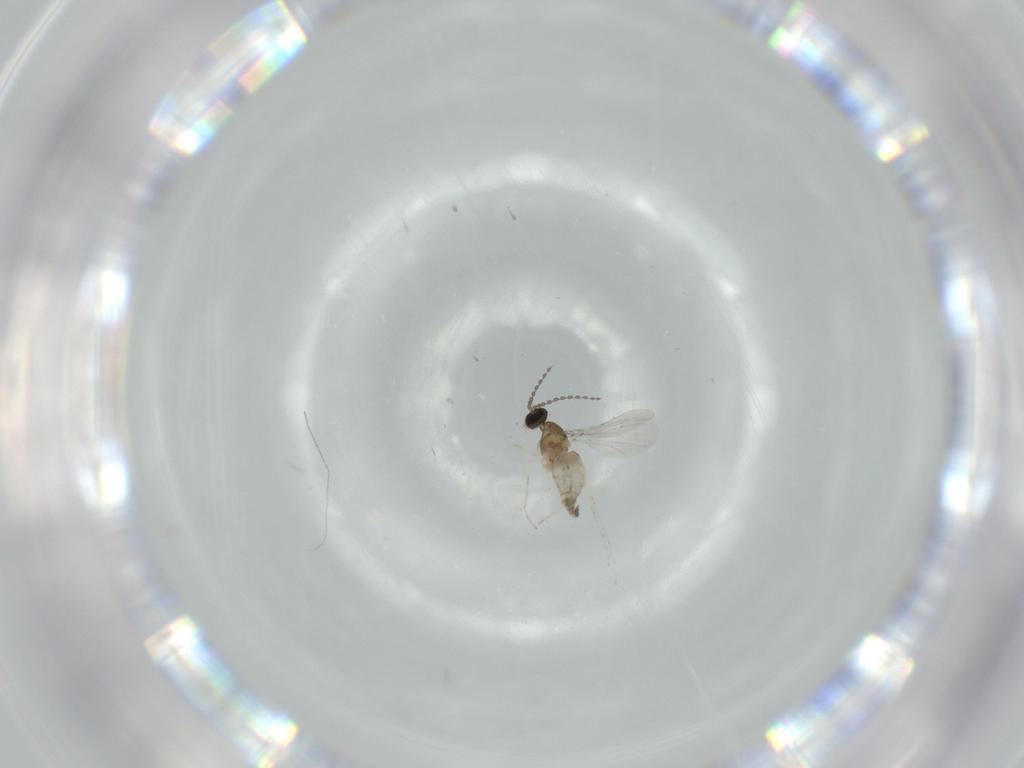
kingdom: Animalia
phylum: Arthropoda
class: Insecta
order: Diptera
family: Cecidomyiidae
